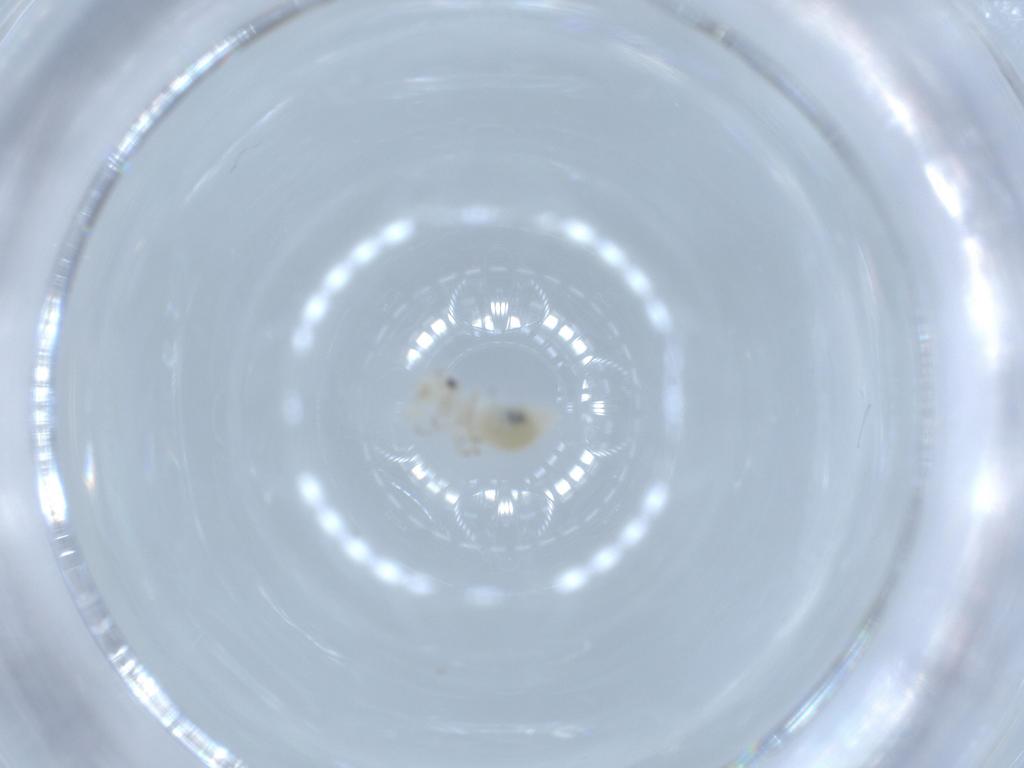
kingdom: Animalia
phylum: Arthropoda
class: Insecta
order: Psocodea
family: Caeciliusidae
